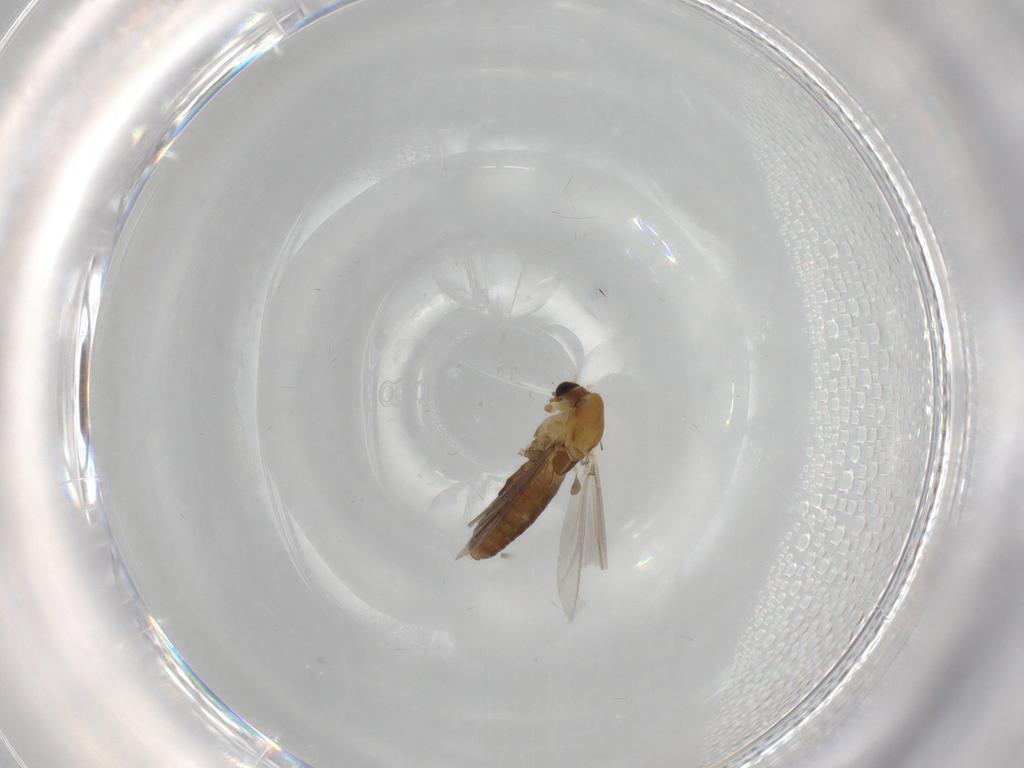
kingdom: Animalia
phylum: Arthropoda
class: Insecta
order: Diptera
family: Chironomidae
